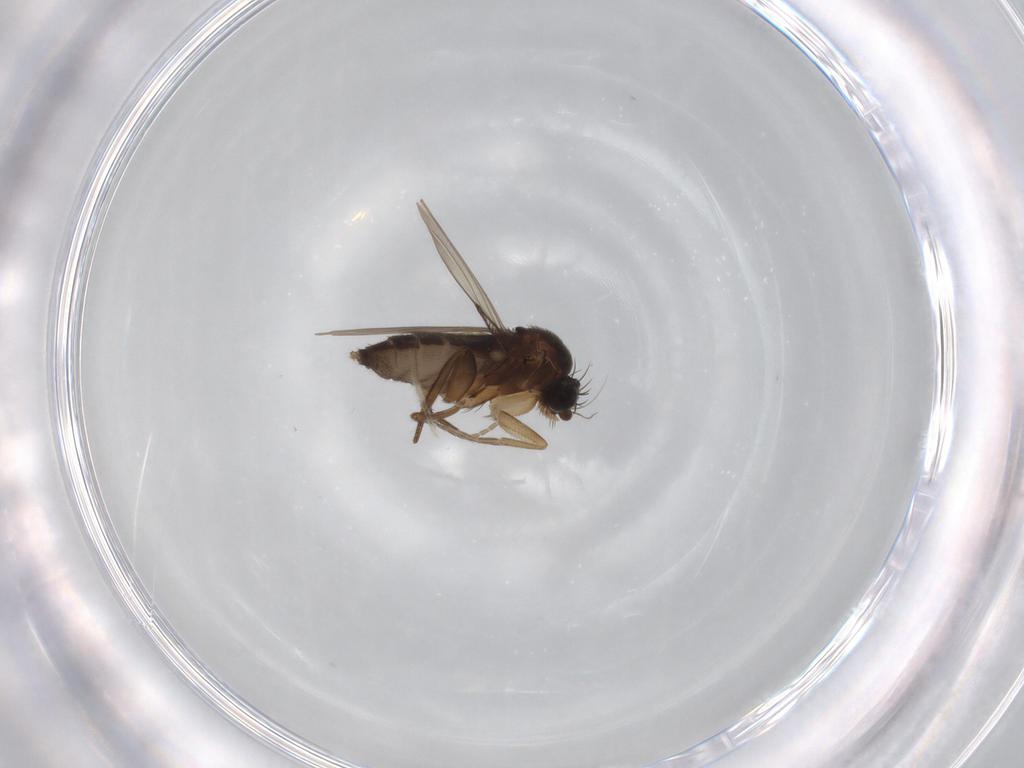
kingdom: Animalia
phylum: Arthropoda
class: Insecta
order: Diptera
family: Phoridae
